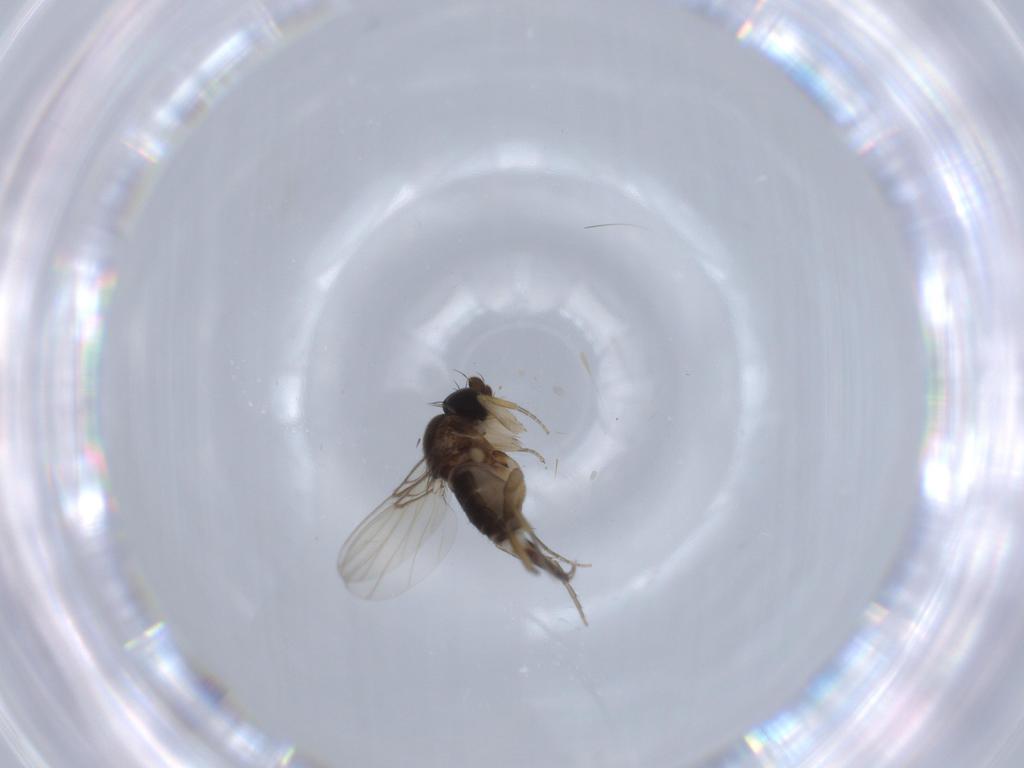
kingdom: Animalia
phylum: Arthropoda
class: Insecta
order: Diptera
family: Phoridae
